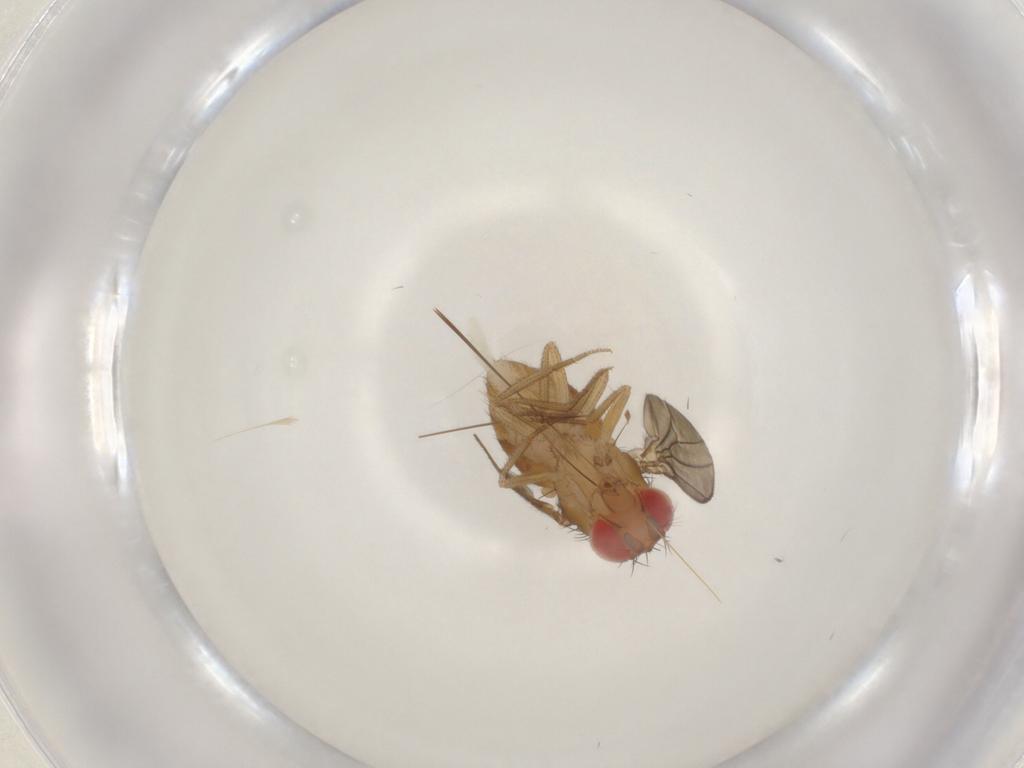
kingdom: Animalia
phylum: Arthropoda
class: Insecta
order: Diptera
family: Drosophilidae
